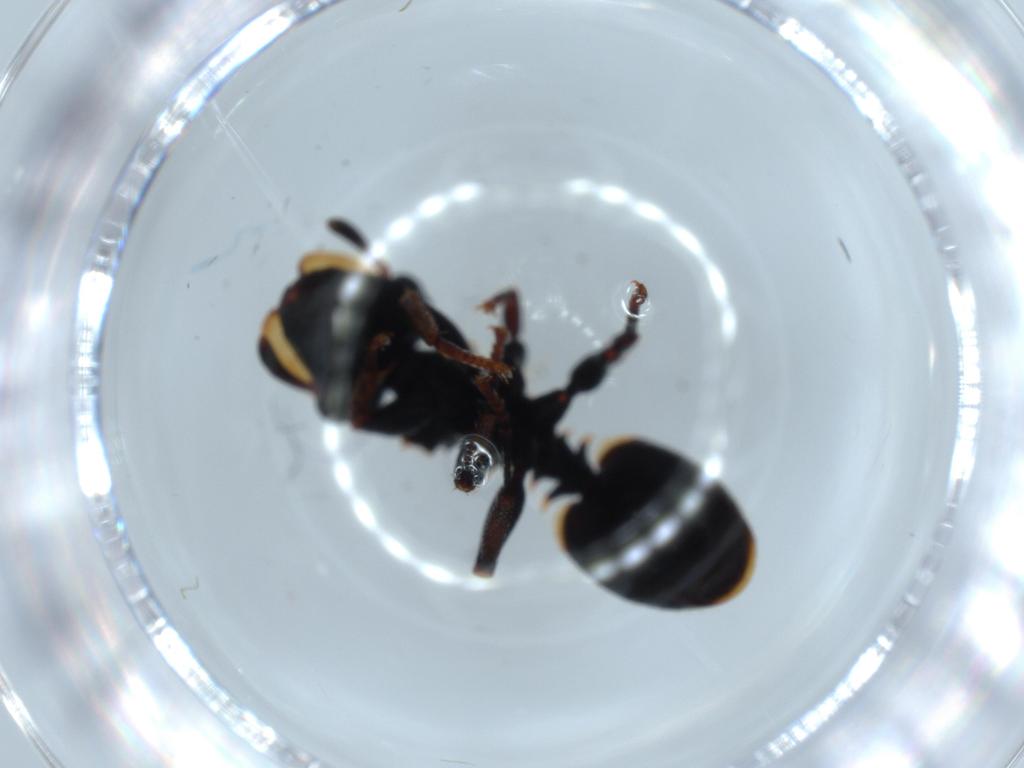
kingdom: Animalia
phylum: Arthropoda
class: Insecta
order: Hymenoptera
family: Formicidae
